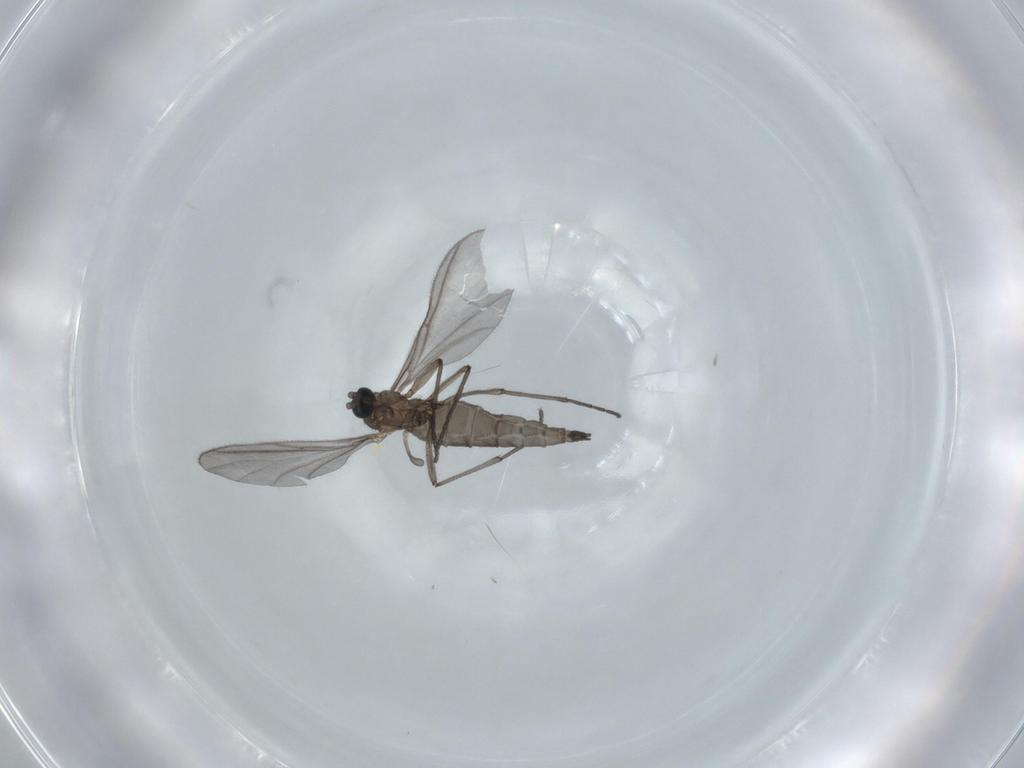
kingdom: Animalia
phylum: Arthropoda
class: Insecta
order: Diptera
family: Sciaridae
